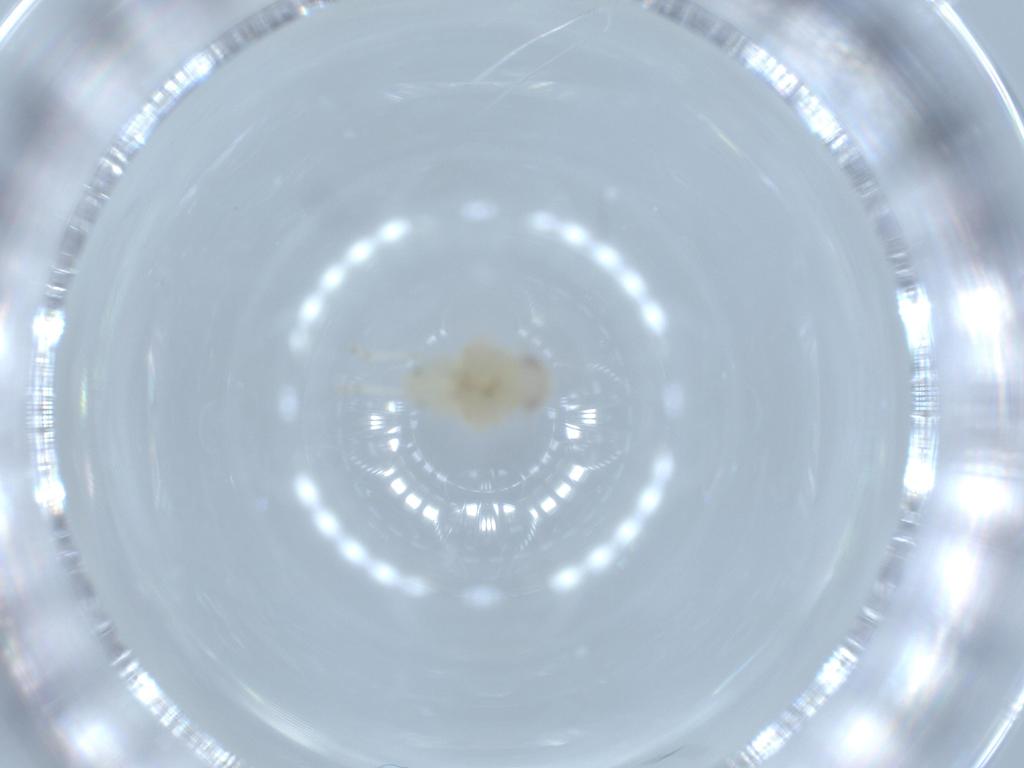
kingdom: Animalia
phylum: Arthropoda
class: Insecta
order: Hemiptera
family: Nogodinidae
